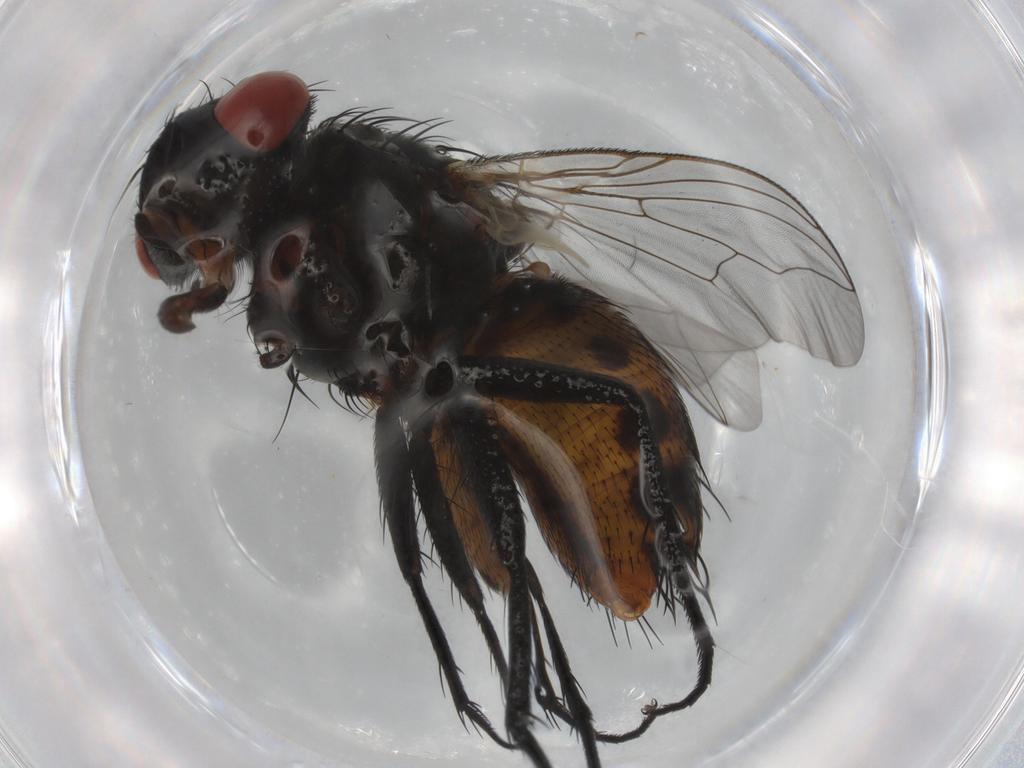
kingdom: Animalia
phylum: Arthropoda
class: Insecta
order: Diptera
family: Sarcophagidae
